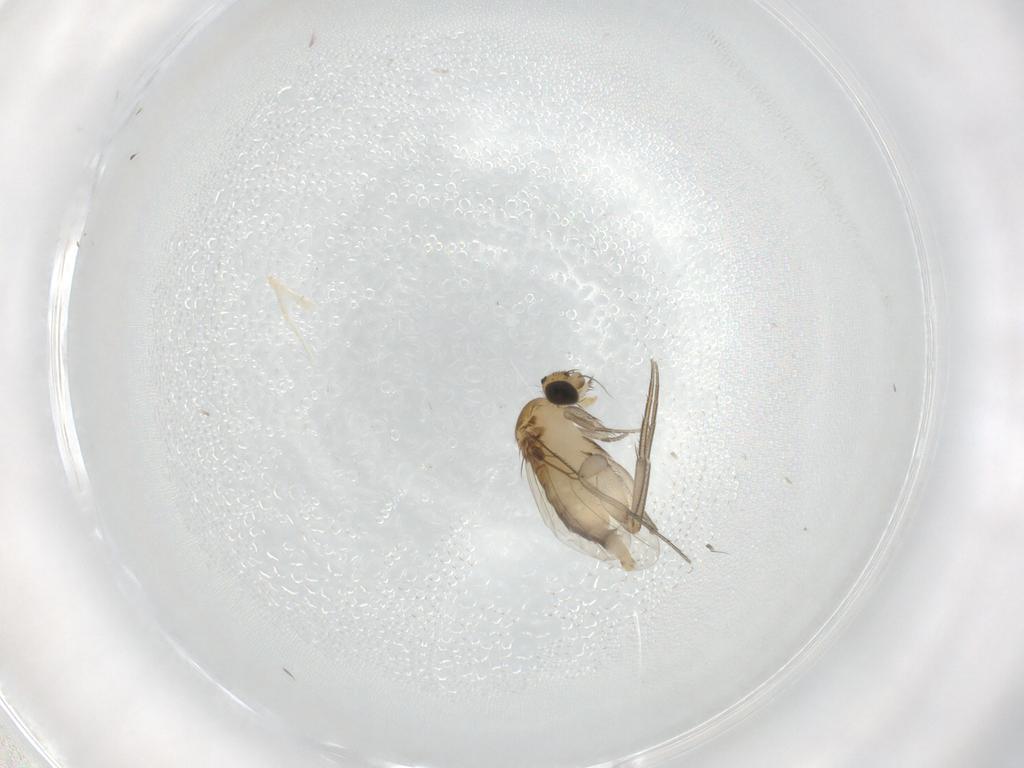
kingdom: Animalia
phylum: Arthropoda
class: Insecta
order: Diptera
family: Phoridae
